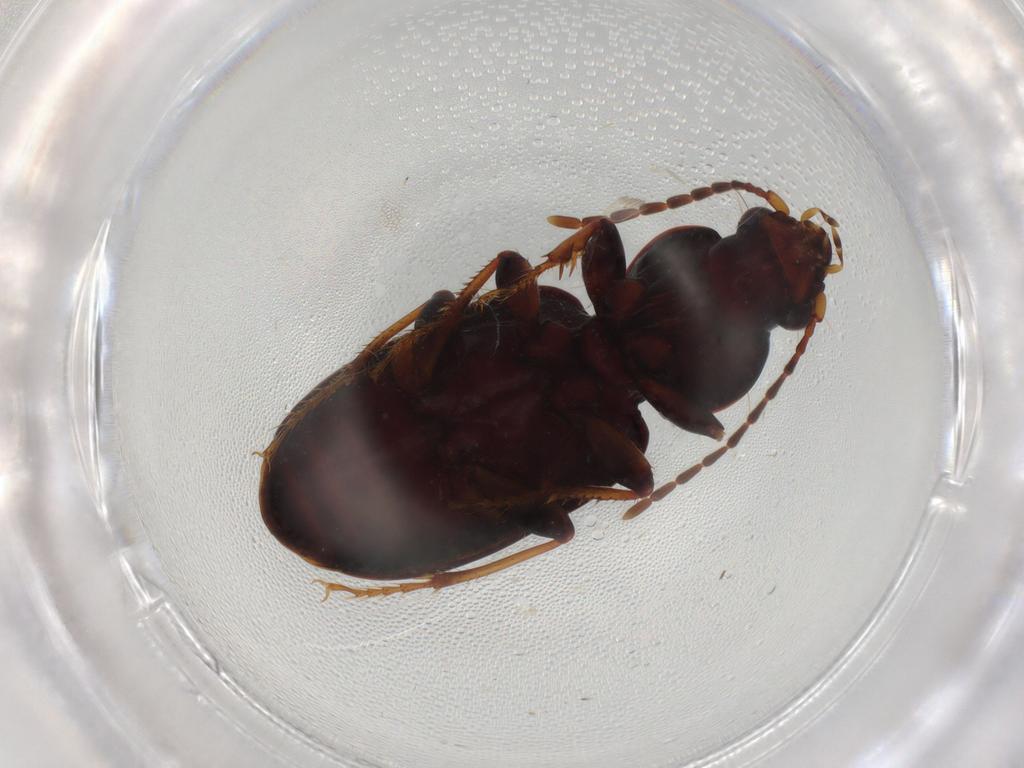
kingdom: Animalia
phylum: Arthropoda
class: Insecta
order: Coleoptera
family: Carabidae
